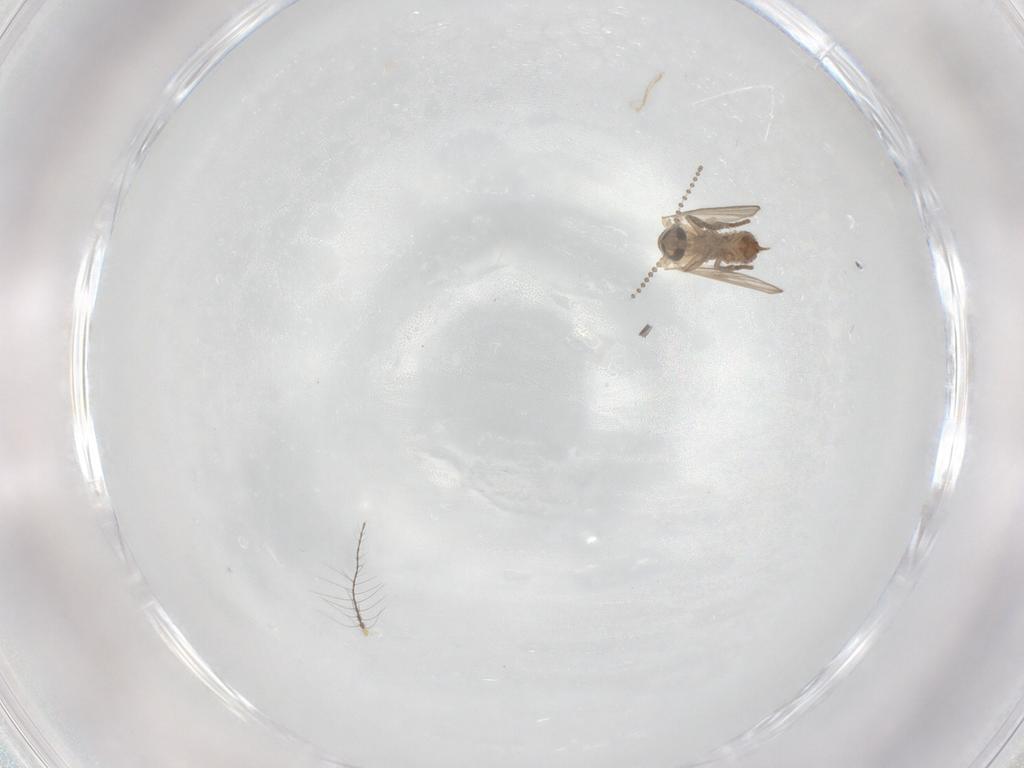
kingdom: Animalia
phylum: Arthropoda
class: Insecta
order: Diptera
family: Psychodidae
